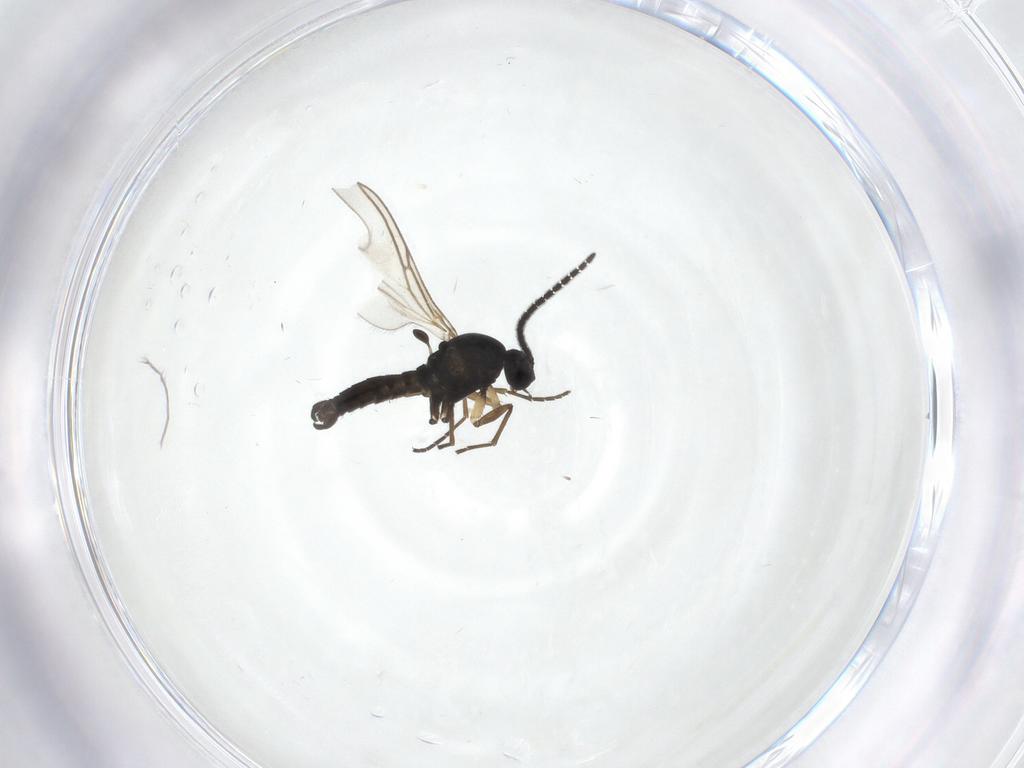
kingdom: Animalia
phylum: Arthropoda
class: Insecta
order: Diptera
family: Sciaridae
